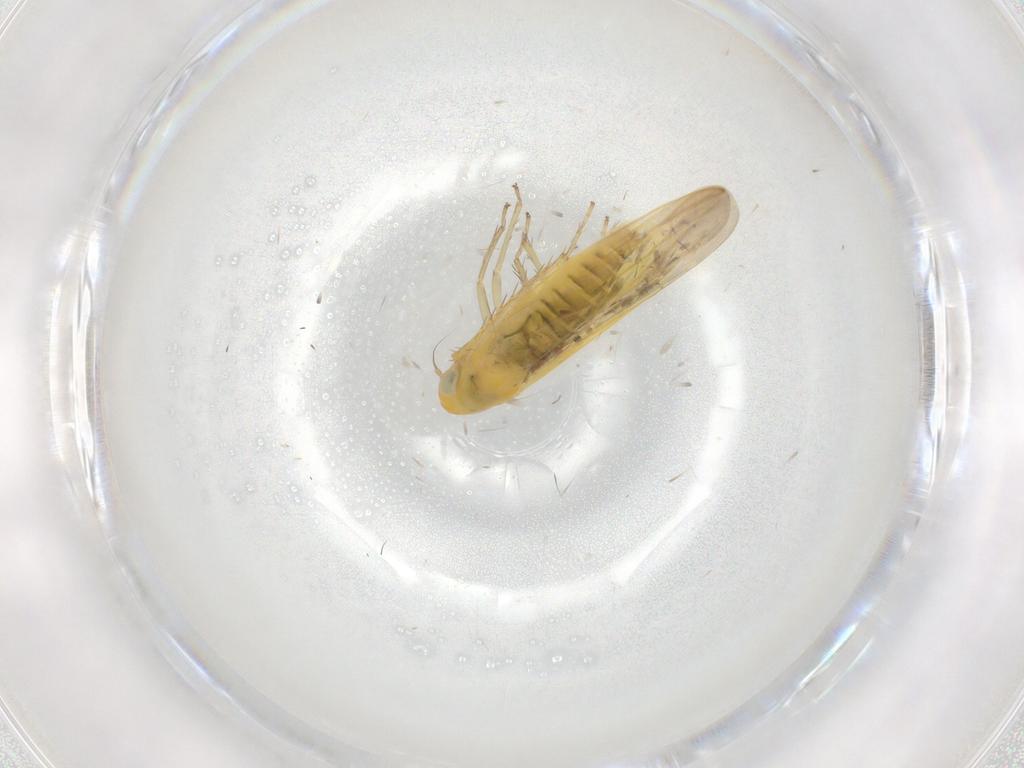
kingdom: Animalia
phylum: Arthropoda
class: Insecta
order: Hemiptera
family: Cicadellidae
